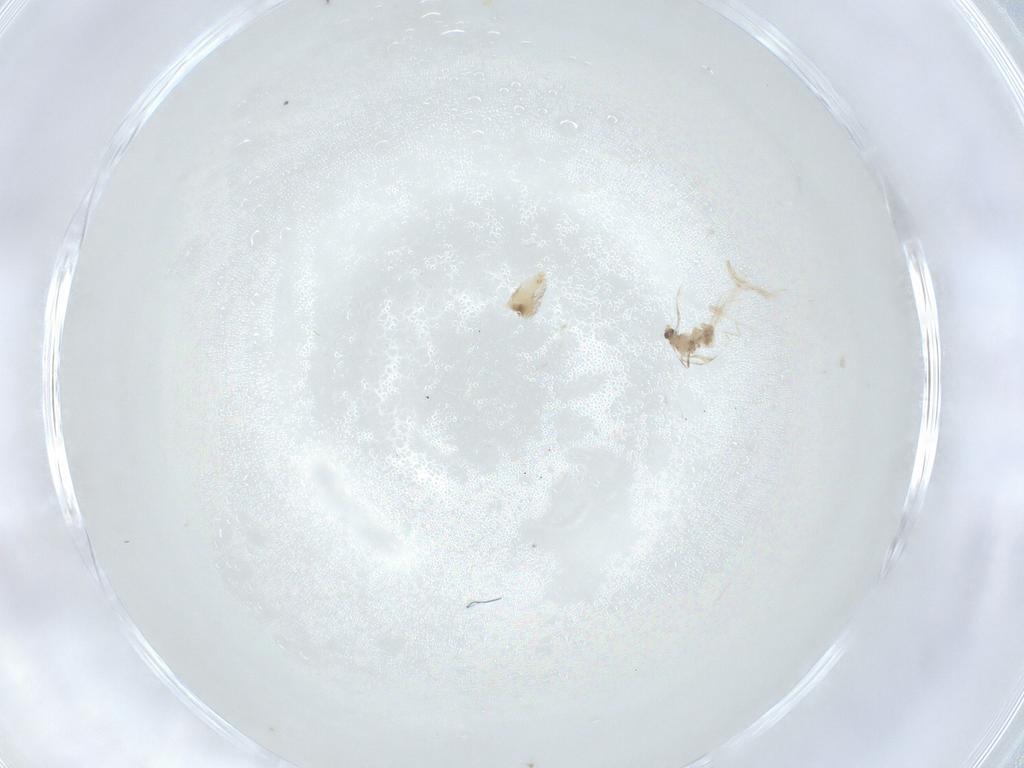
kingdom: Animalia
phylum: Arthropoda
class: Insecta
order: Diptera
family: Cecidomyiidae
